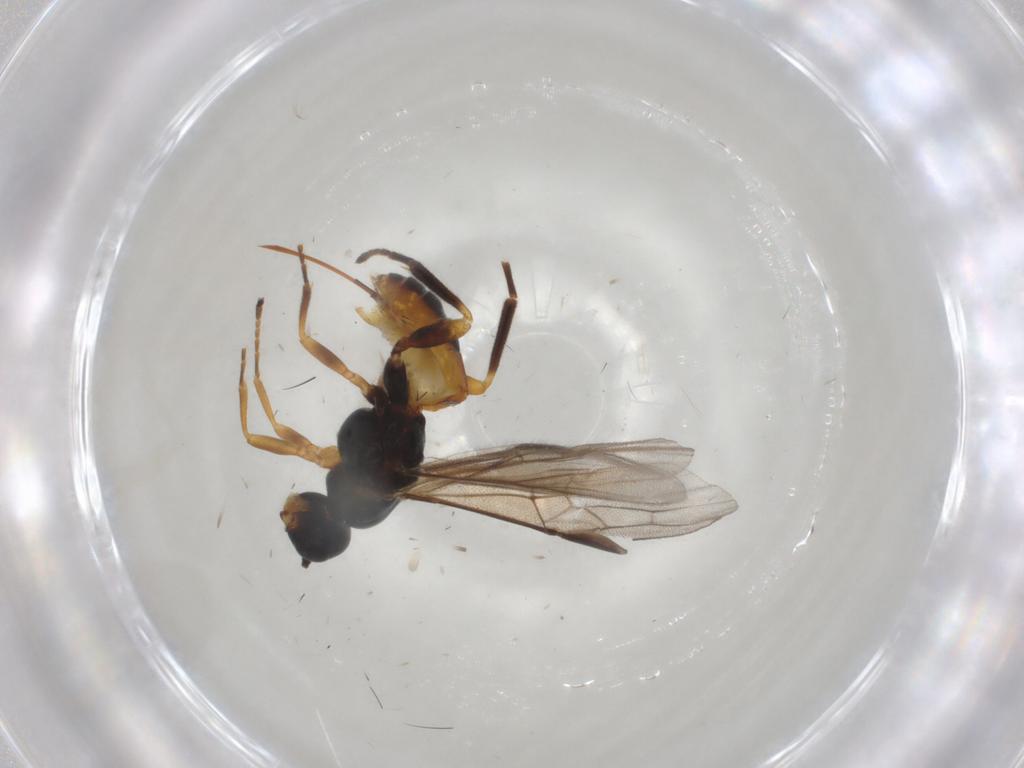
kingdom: Animalia
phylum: Arthropoda
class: Insecta
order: Hymenoptera
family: Braconidae
